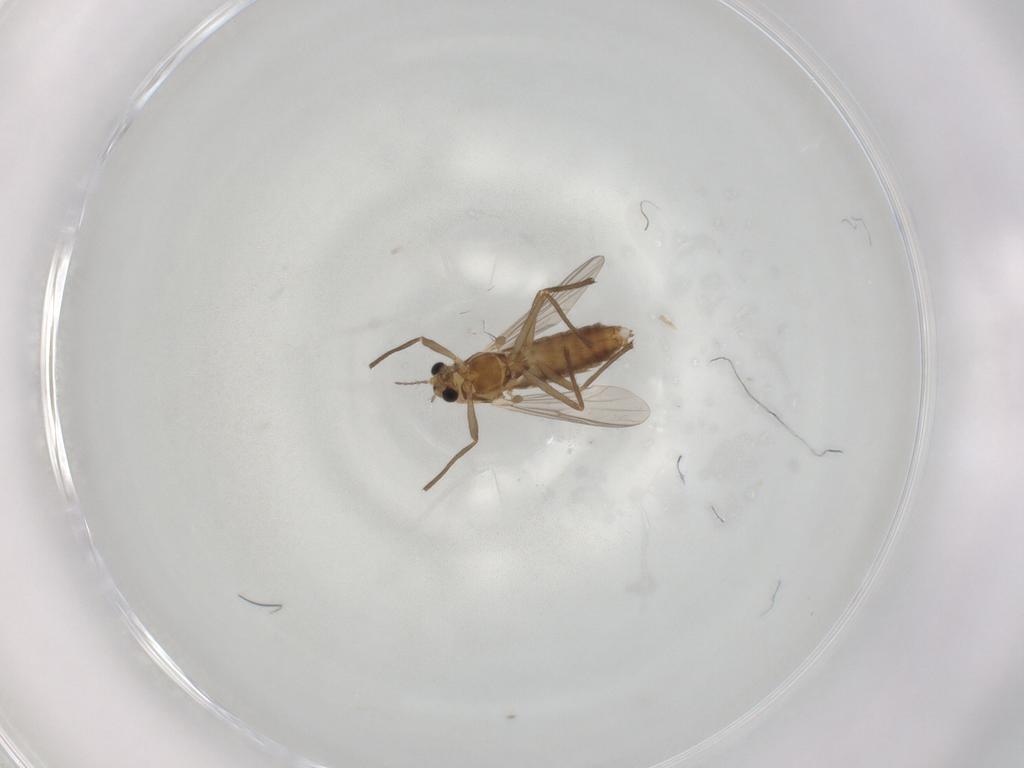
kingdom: Animalia
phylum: Arthropoda
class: Insecta
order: Diptera
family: Chironomidae
